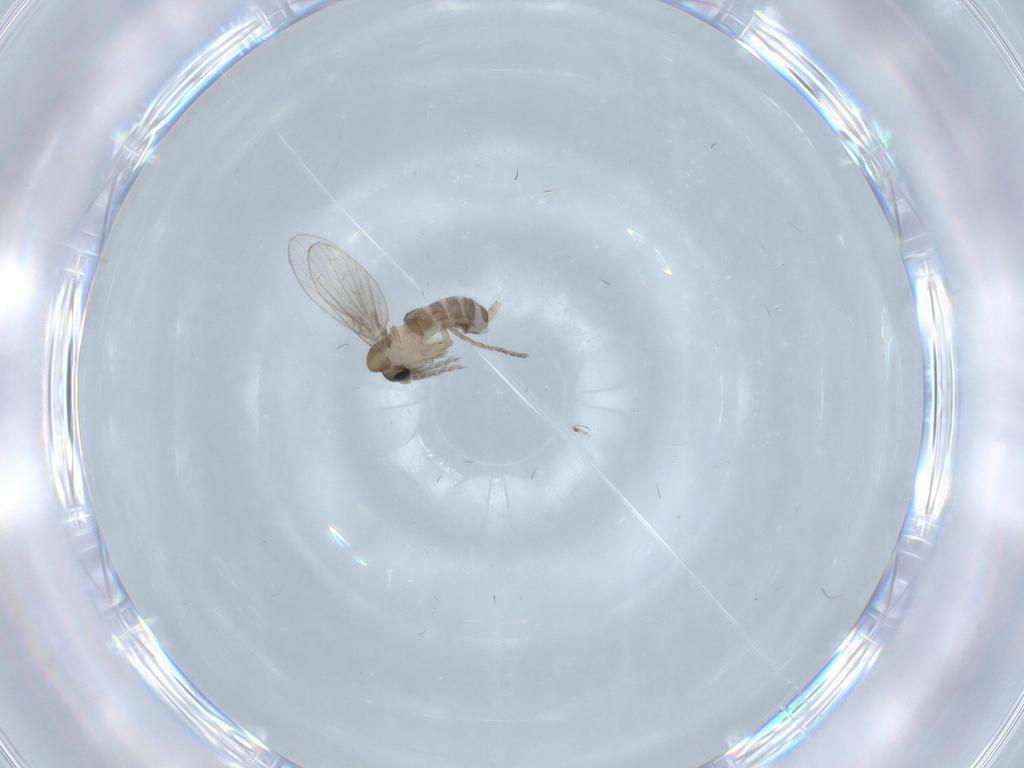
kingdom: Animalia
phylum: Arthropoda
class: Insecta
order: Diptera
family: Psychodidae
